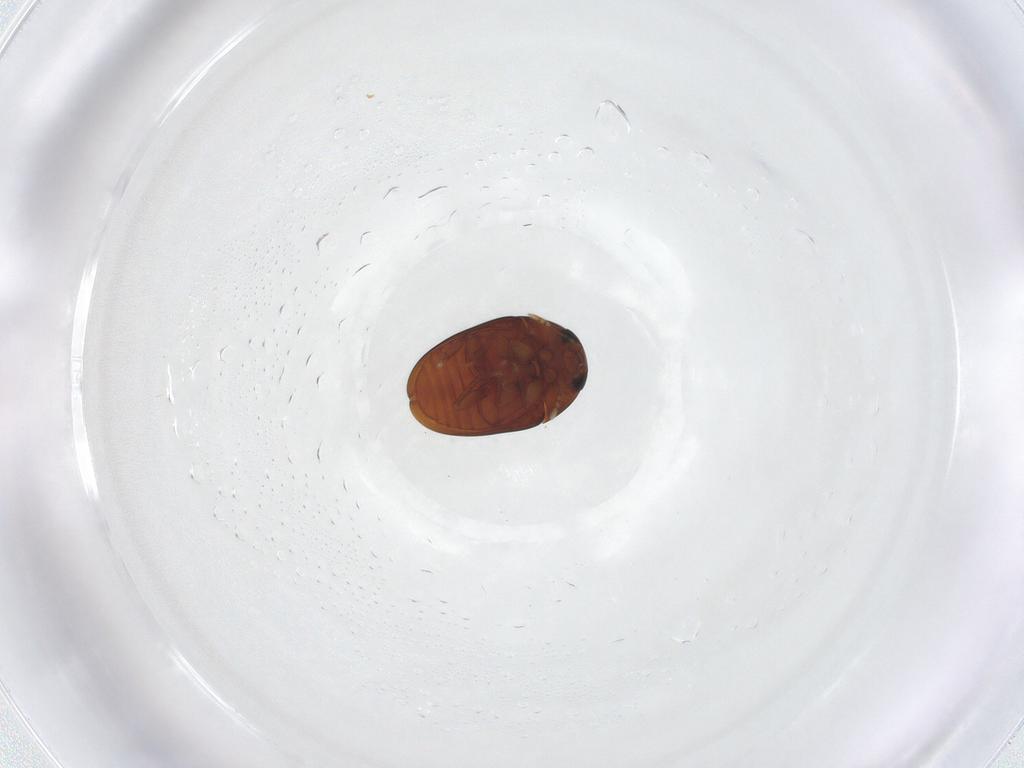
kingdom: Animalia
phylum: Arthropoda
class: Insecta
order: Coleoptera
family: Phalacridae
